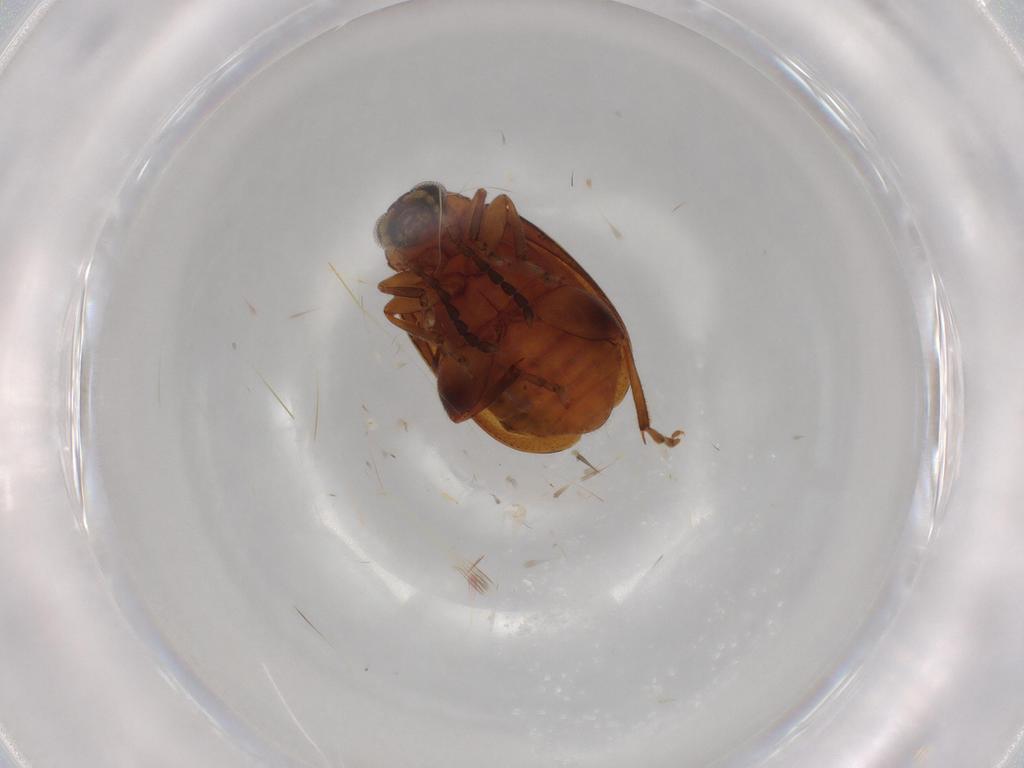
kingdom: Animalia
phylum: Arthropoda
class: Insecta
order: Coleoptera
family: Chrysomelidae
